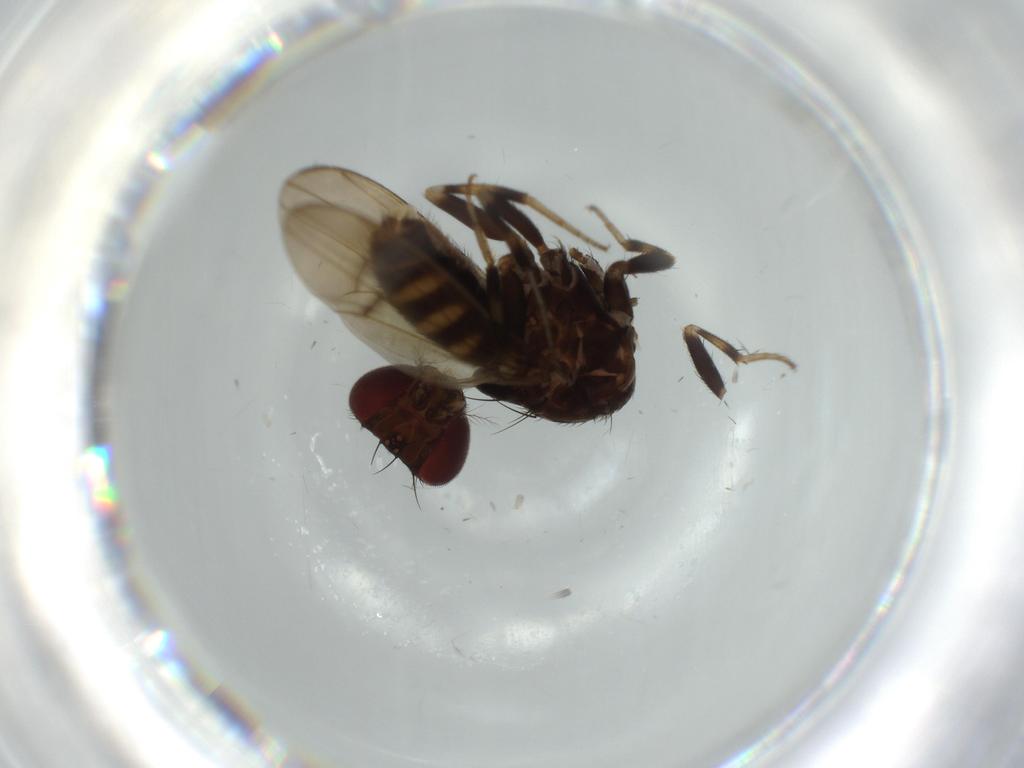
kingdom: Animalia
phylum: Arthropoda
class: Insecta
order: Diptera
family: Drosophilidae
